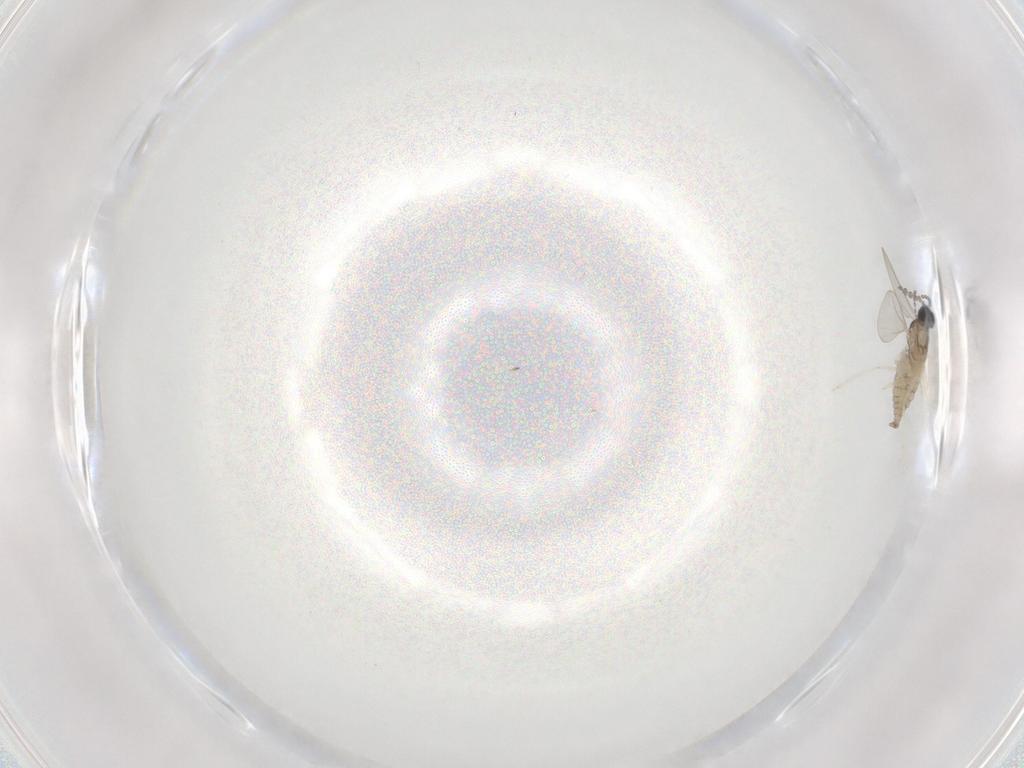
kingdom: Animalia
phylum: Arthropoda
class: Insecta
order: Diptera
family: Cecidomyiidae
